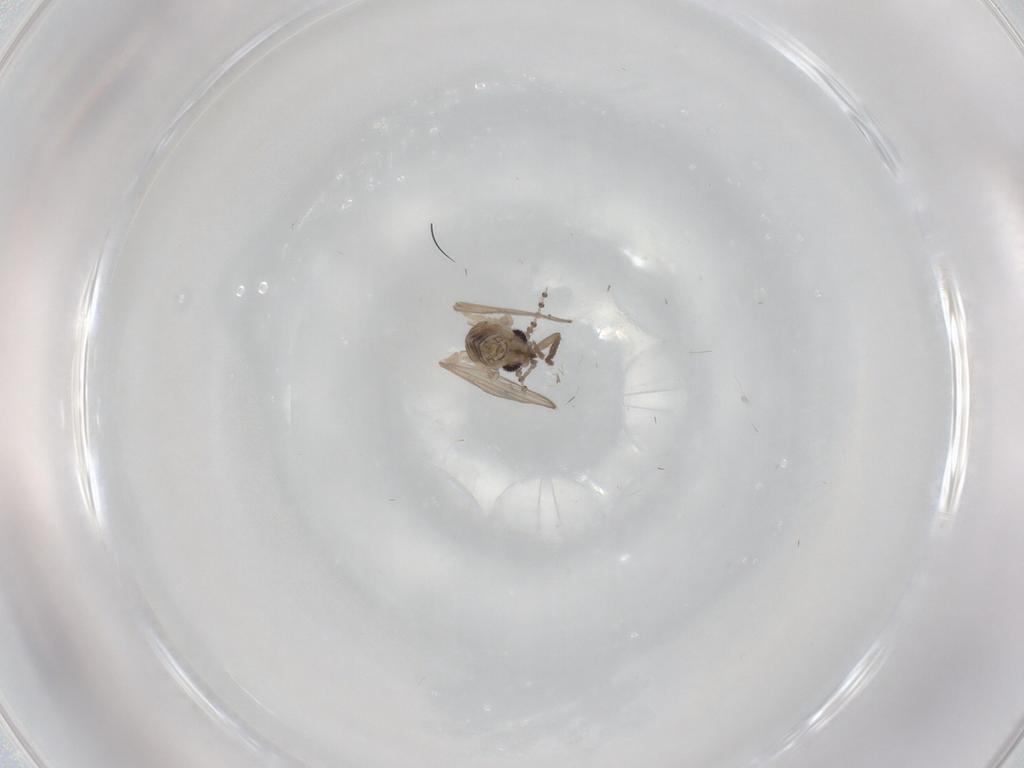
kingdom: Animalia
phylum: Arthropoda
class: Insecta
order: Diptera
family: Psychodidae
